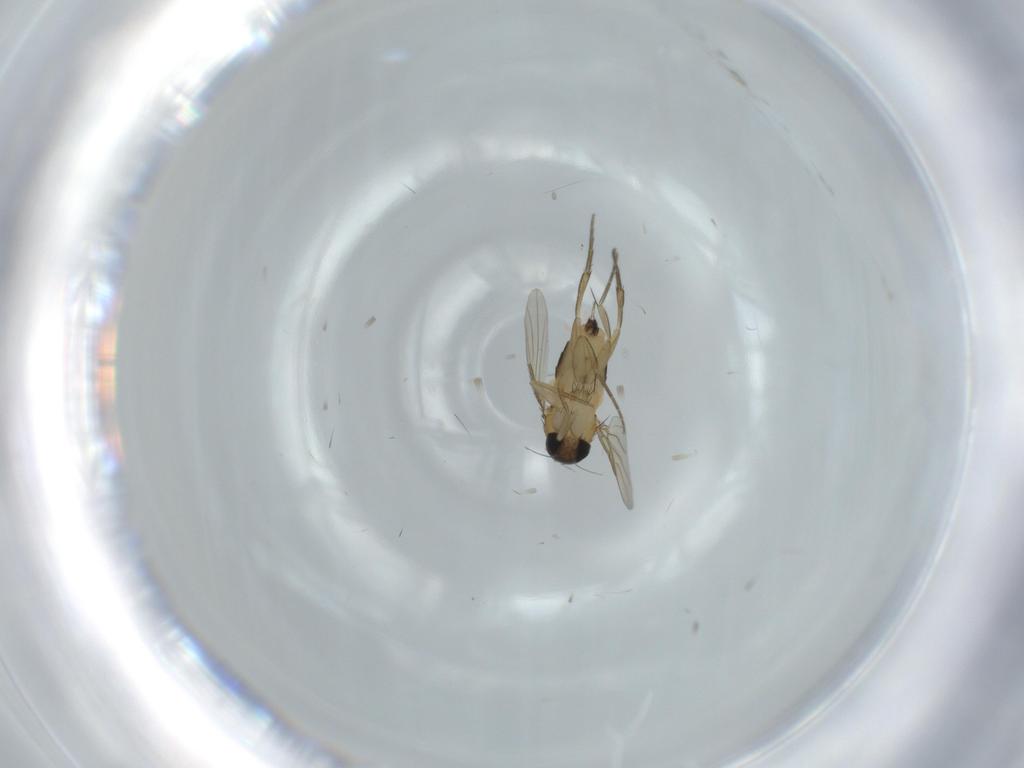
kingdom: Animalia
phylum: Arthropoda
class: Insecta
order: Diptera
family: Phoridae
